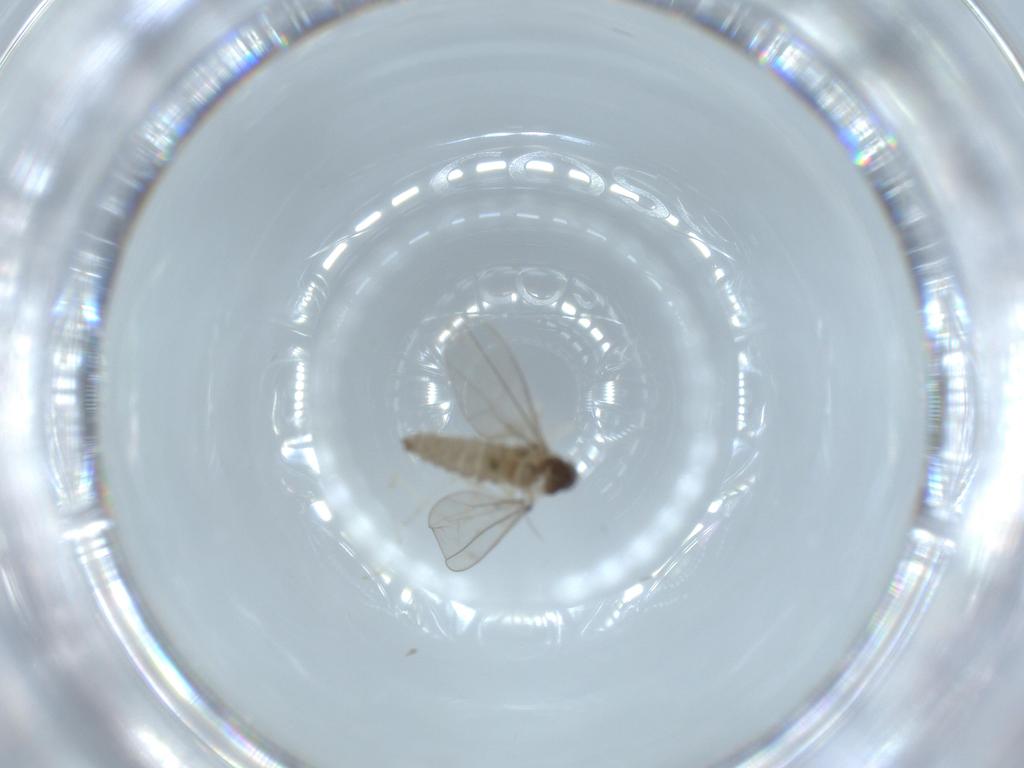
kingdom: Animalia
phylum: Arthropoda
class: Insecta
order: Diptera
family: Cecidomyiidae
